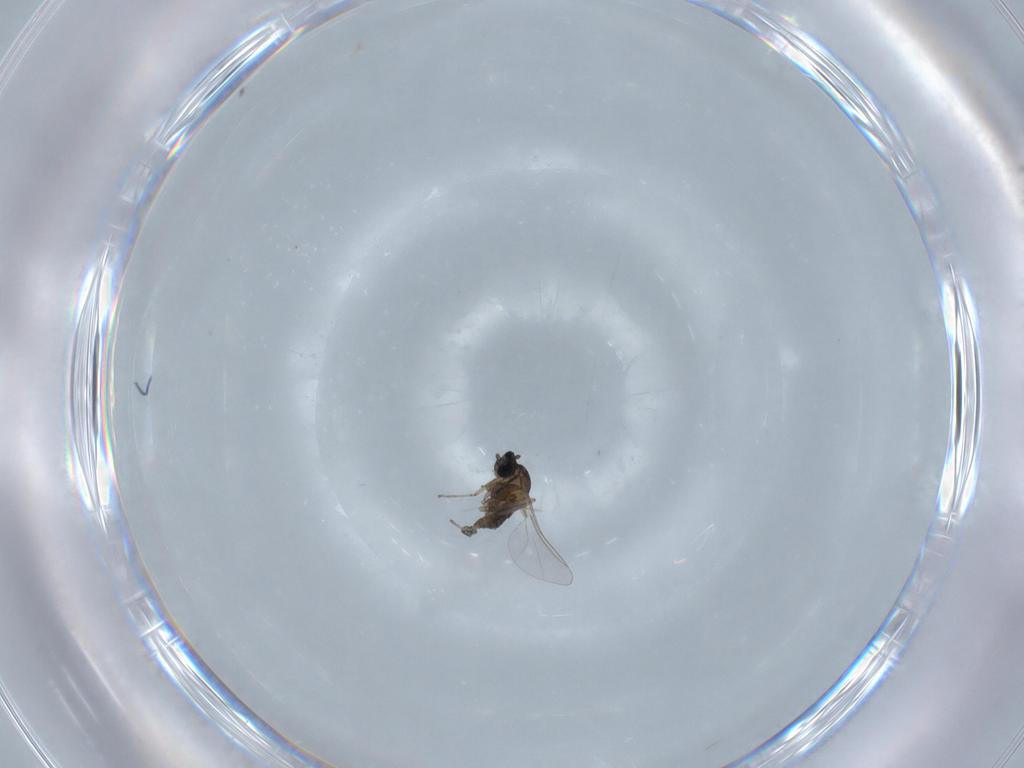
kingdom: Animalia
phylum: Arthropoda
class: Insecta
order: Diptera
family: Cecidomyiidae
